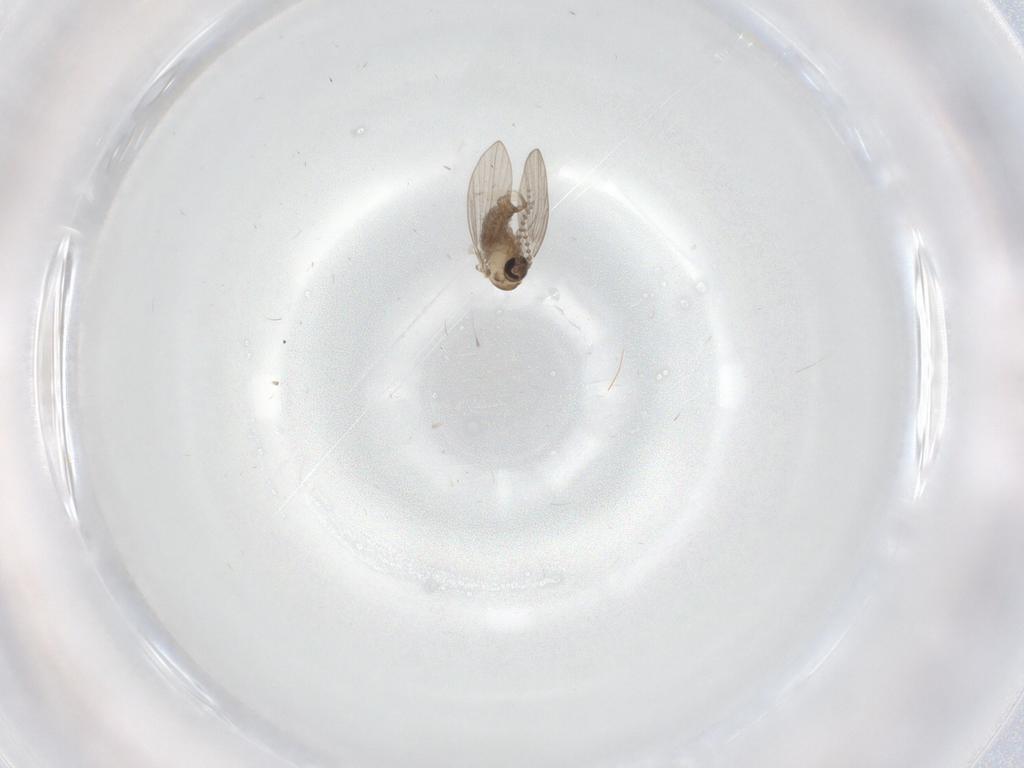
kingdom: Animalia
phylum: Arthropoda
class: Insecta
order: Diptera
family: Phoridae
